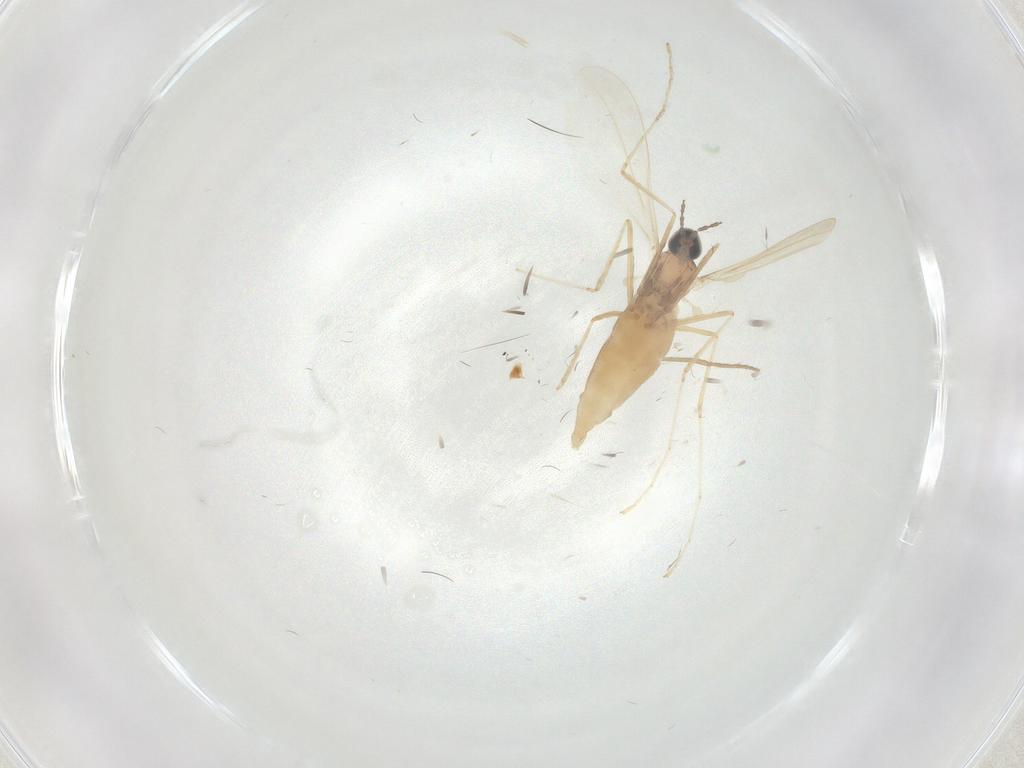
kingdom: Animalia
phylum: Arthropoda
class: Insecta
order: Diptera
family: Cecidomyiidae
